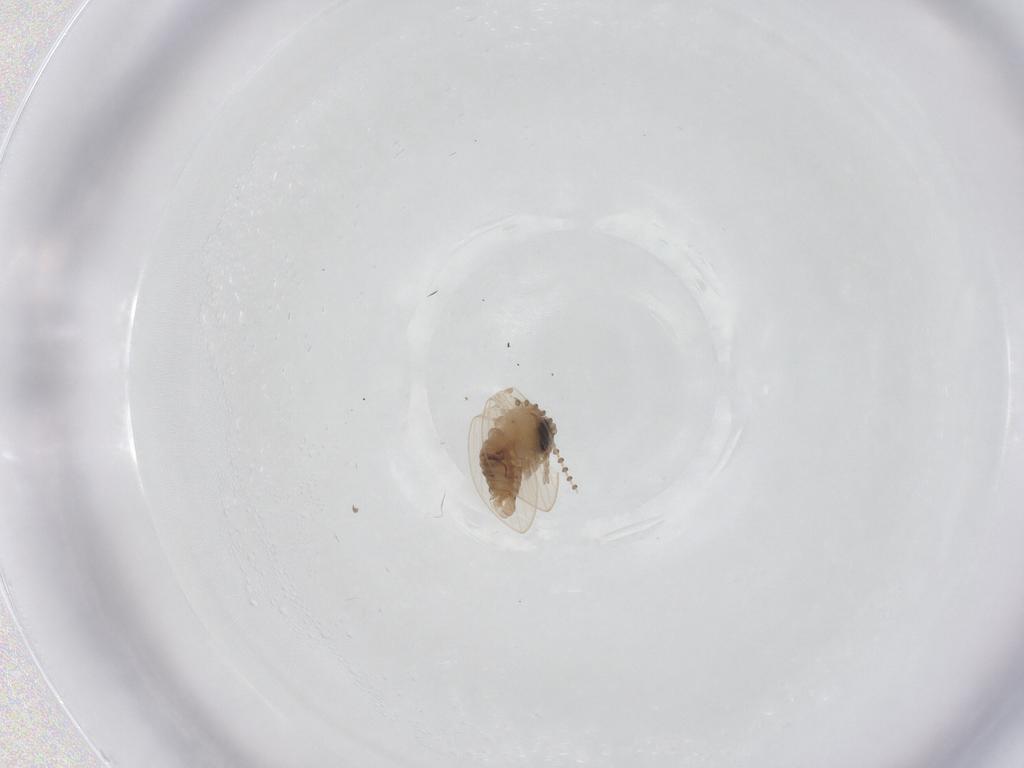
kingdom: Animalia
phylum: Arthropoda
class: Insecta
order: Diptera
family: Psychodidae
